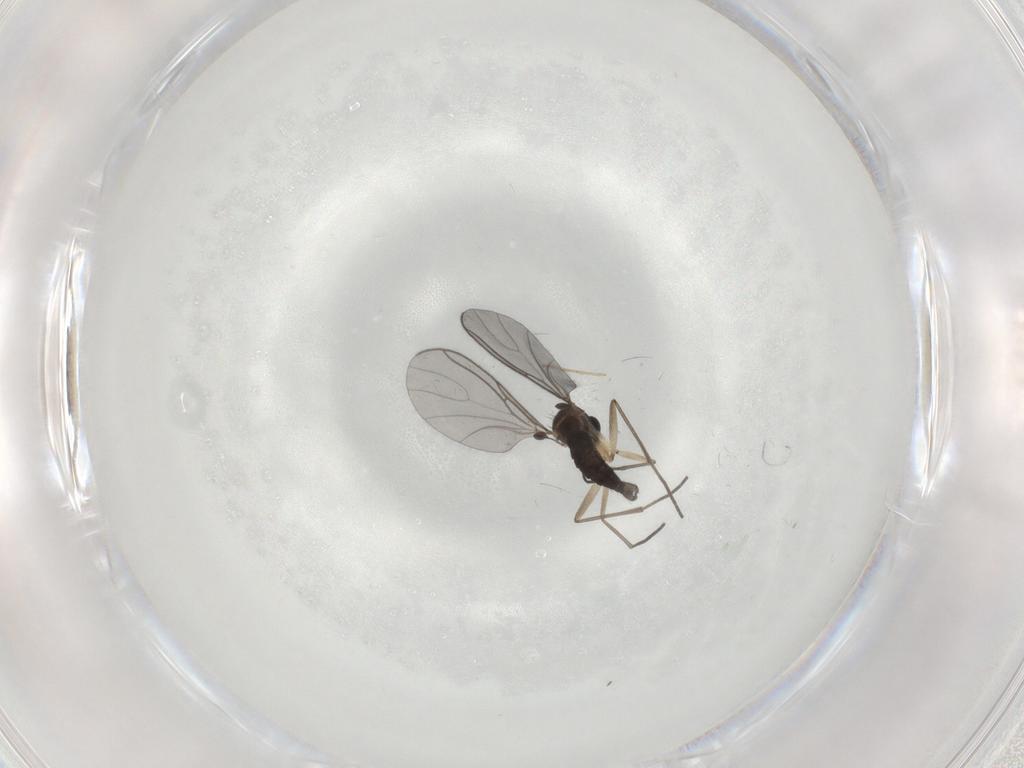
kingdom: Animalia
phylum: Arthropoda
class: Insecta
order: Diptera
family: Sciaridae
